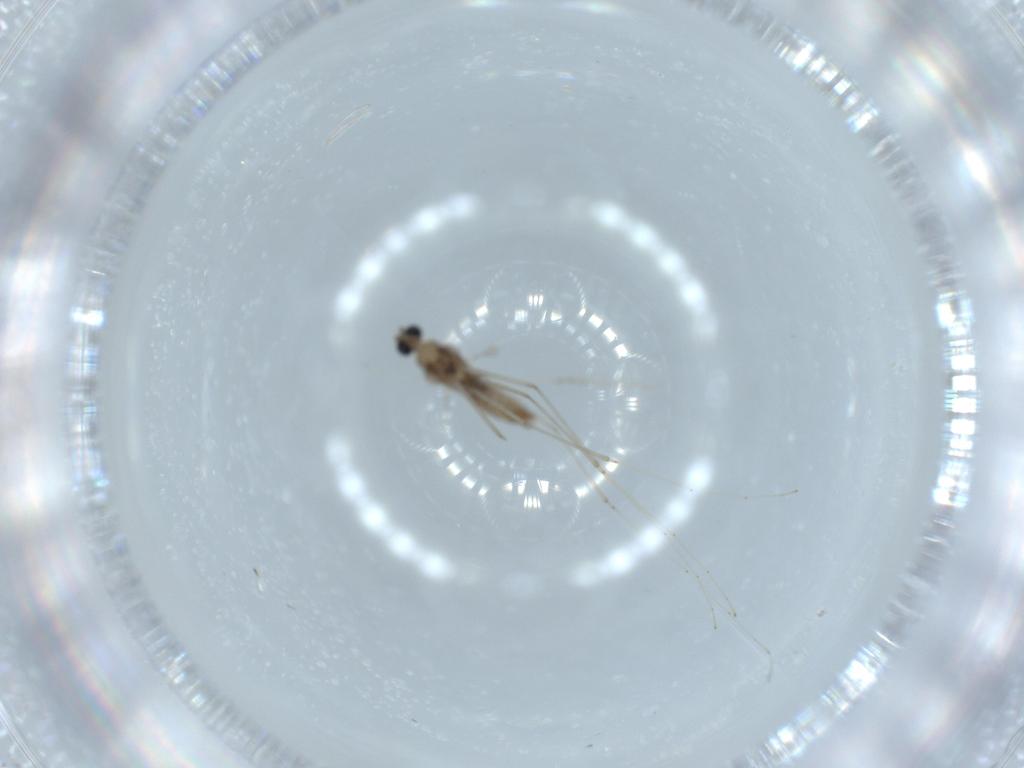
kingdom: Animalia
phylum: Arthropoda
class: Insecta
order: Diptera
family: Cecidomyiidae
